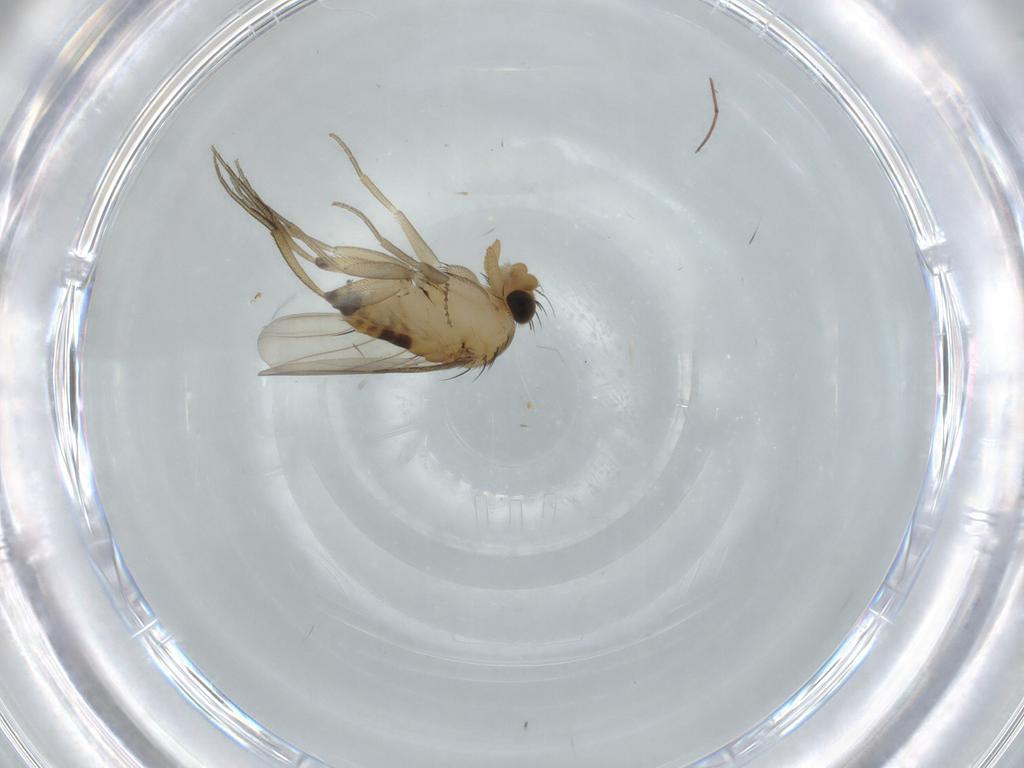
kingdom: Animalia
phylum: Arthropoda
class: Insecta
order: Diptera
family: Phoridae
